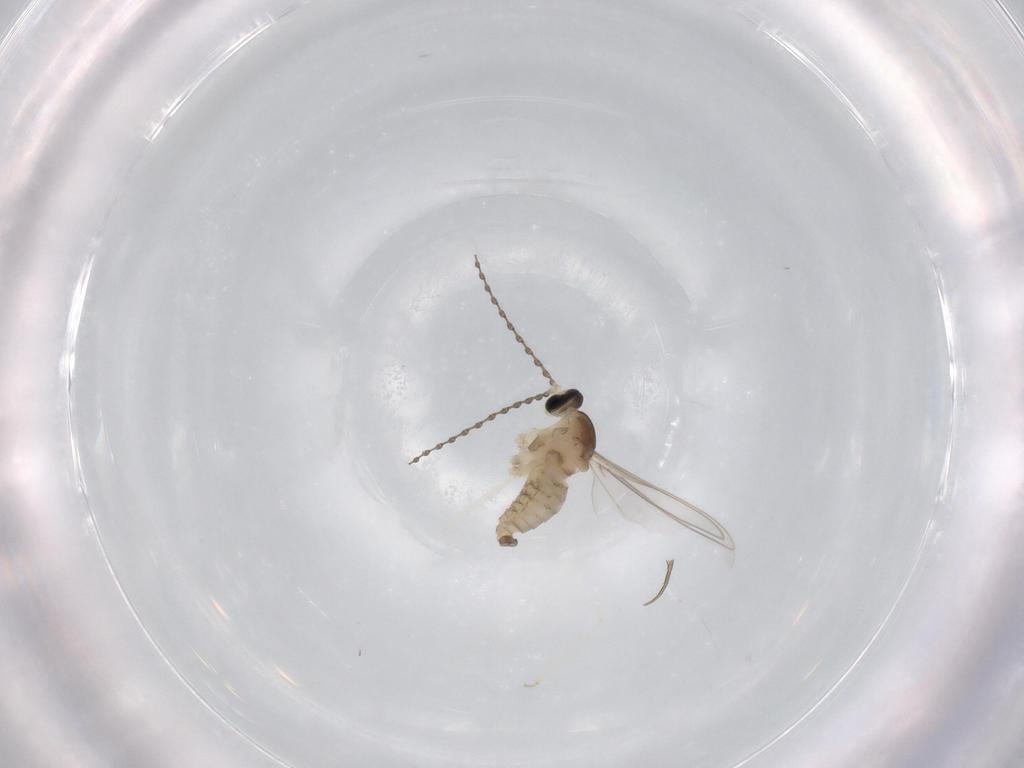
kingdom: Animalia
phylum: Arthropoda
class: Insecta
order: Diptera
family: Cecidomyiidae
